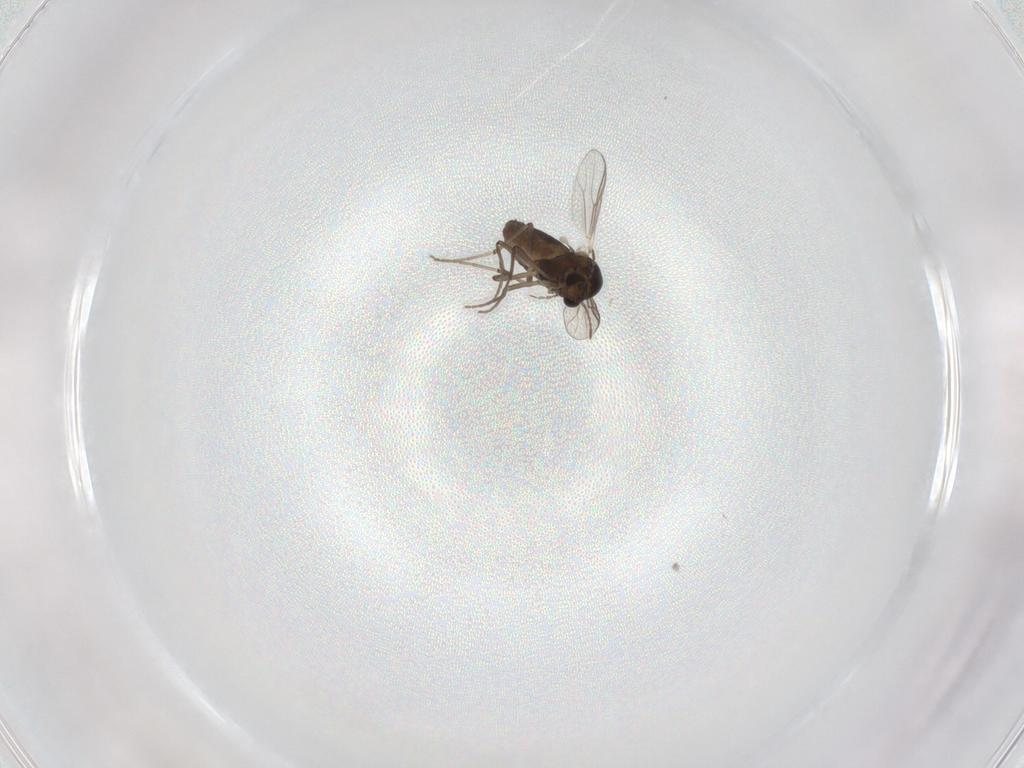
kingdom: Animalia
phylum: Arthropoda
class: Insecta
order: Diptera
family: Chironomidae
